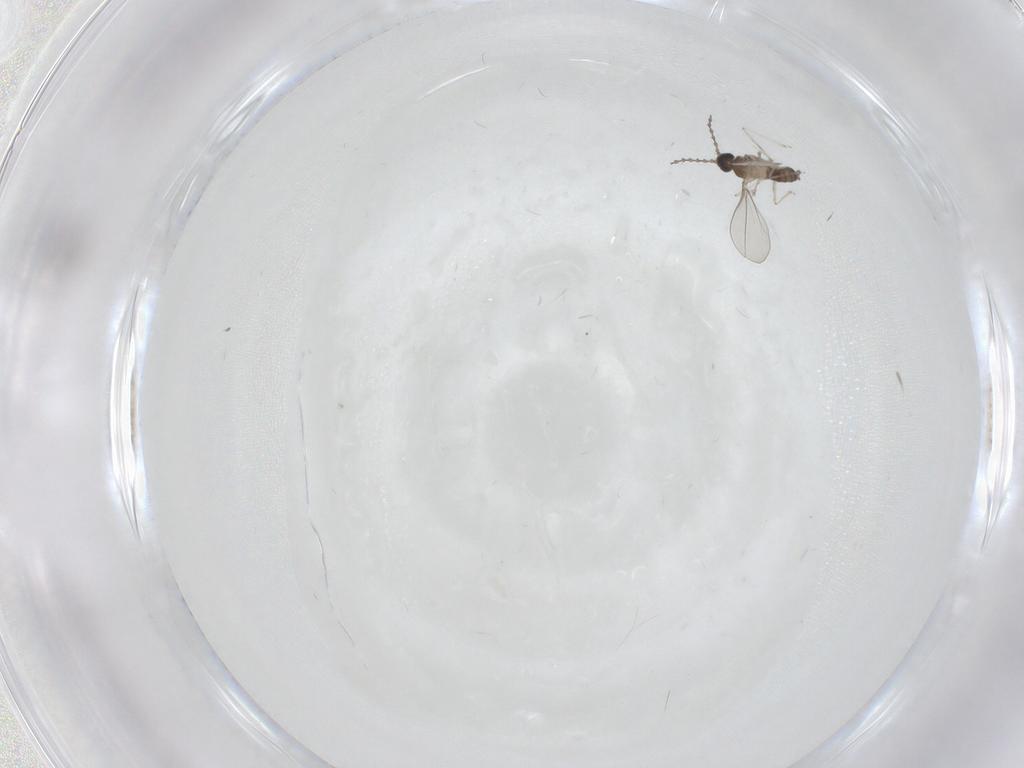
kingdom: Animalia
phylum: Arthropoda
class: Insecta
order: Diptera
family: Cecidomyiidae
